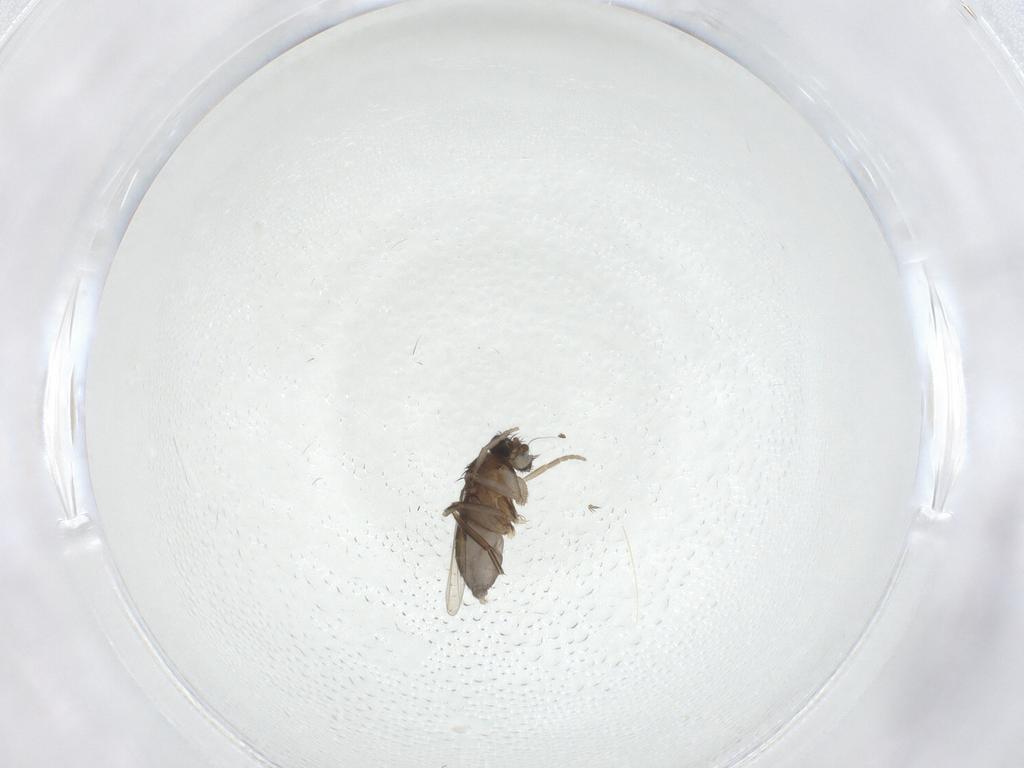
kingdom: Animalia
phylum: Arthropoda
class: Insecta
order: Diptera
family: Phoridae
